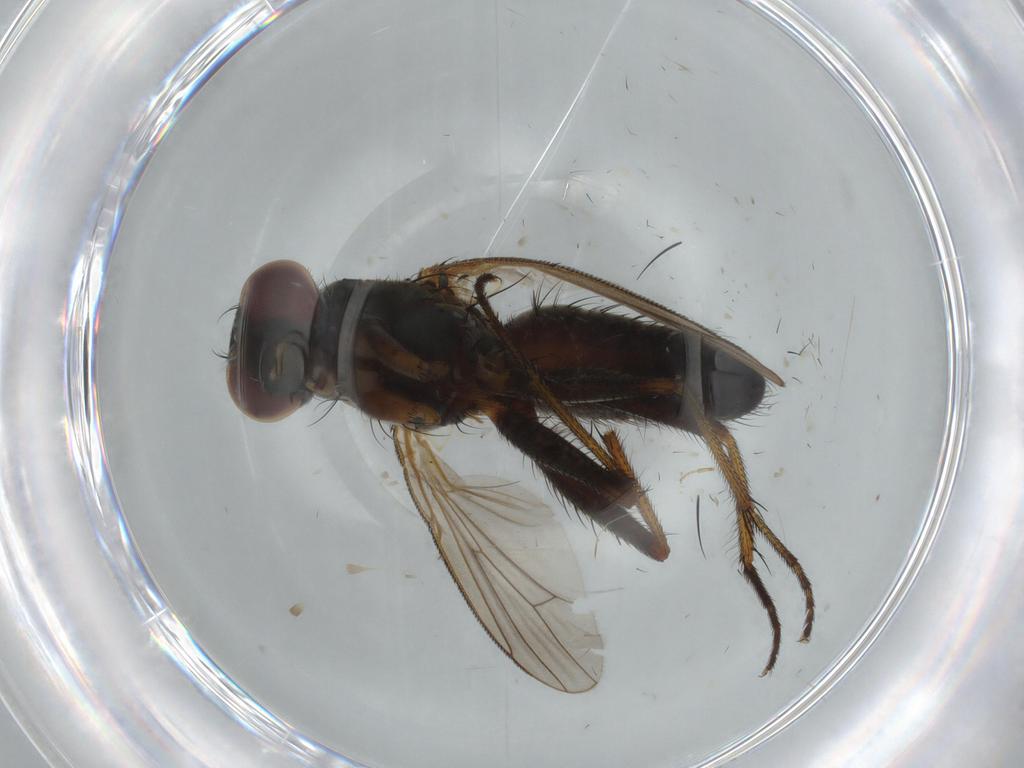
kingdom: Animalia
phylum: Arthropoda
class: Insecta
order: Diptera
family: Muscidae
